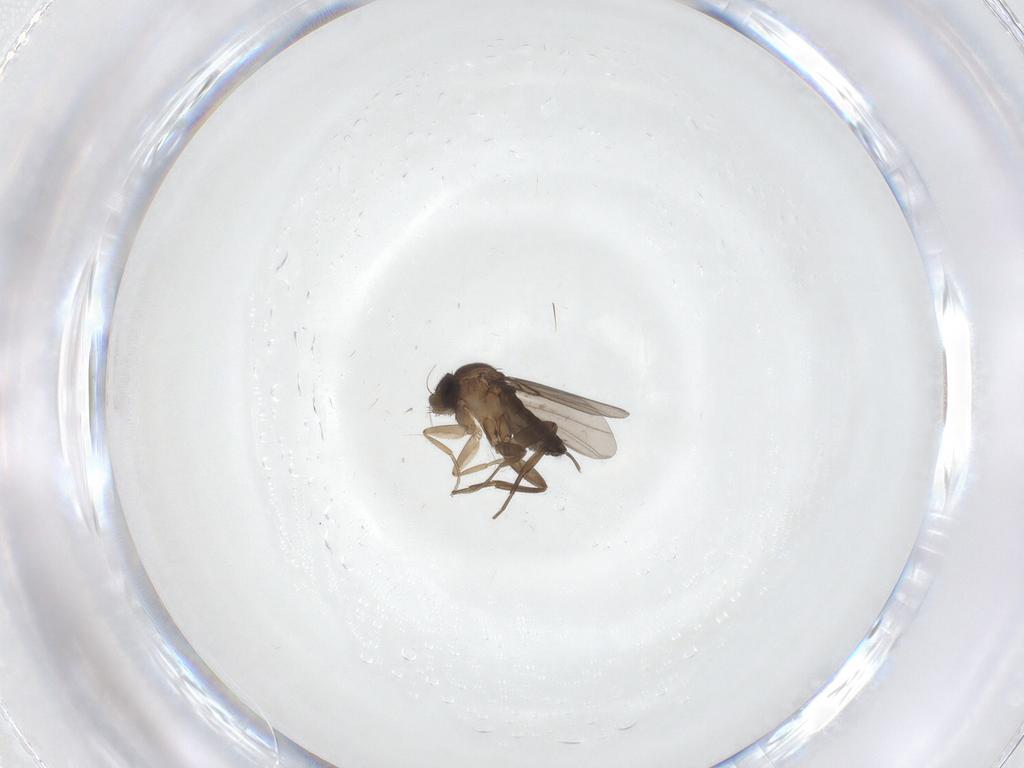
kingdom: Animalia
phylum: Arthropoda
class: Insecta
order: Diptera
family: Phoridae
